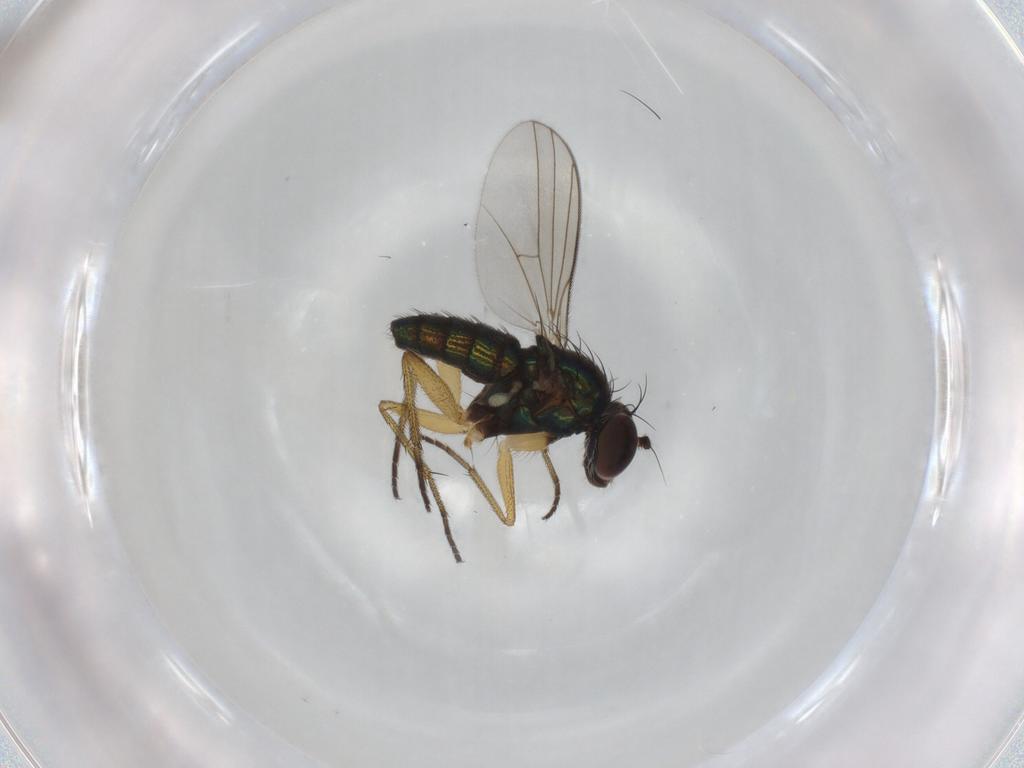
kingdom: Animalia
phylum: Arthropoda
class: Insecta
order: Diptera
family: Dolichopodidae
